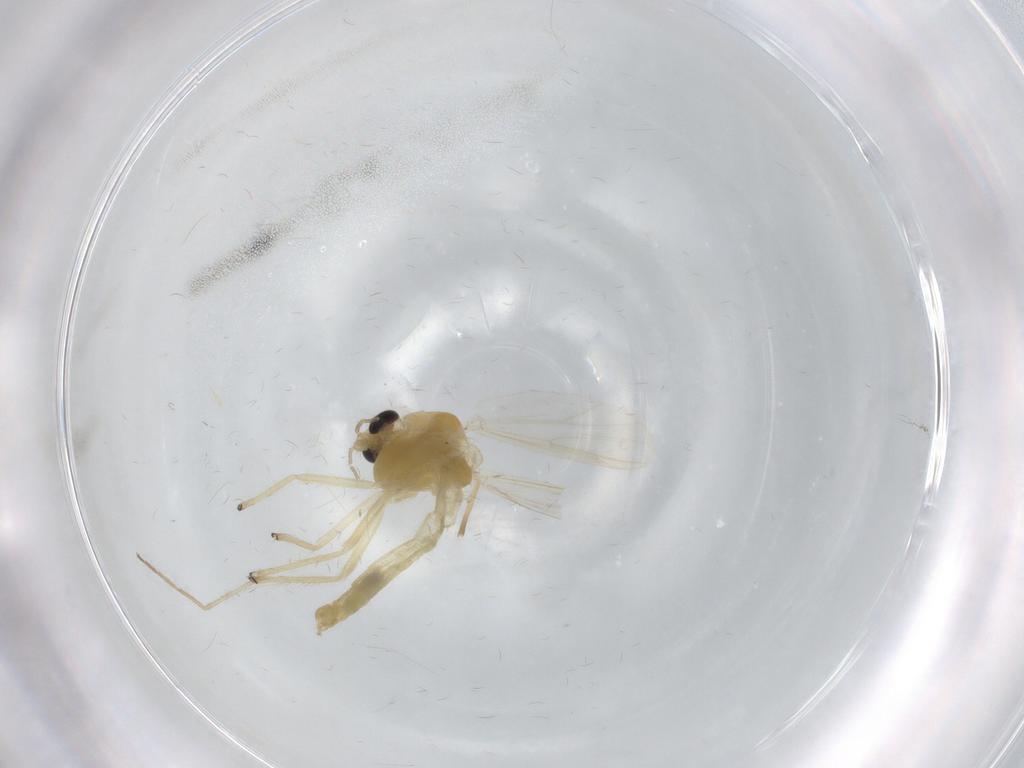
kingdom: Animalia
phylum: Arthropoda
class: Insecta
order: Diptera
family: Chironomidae
